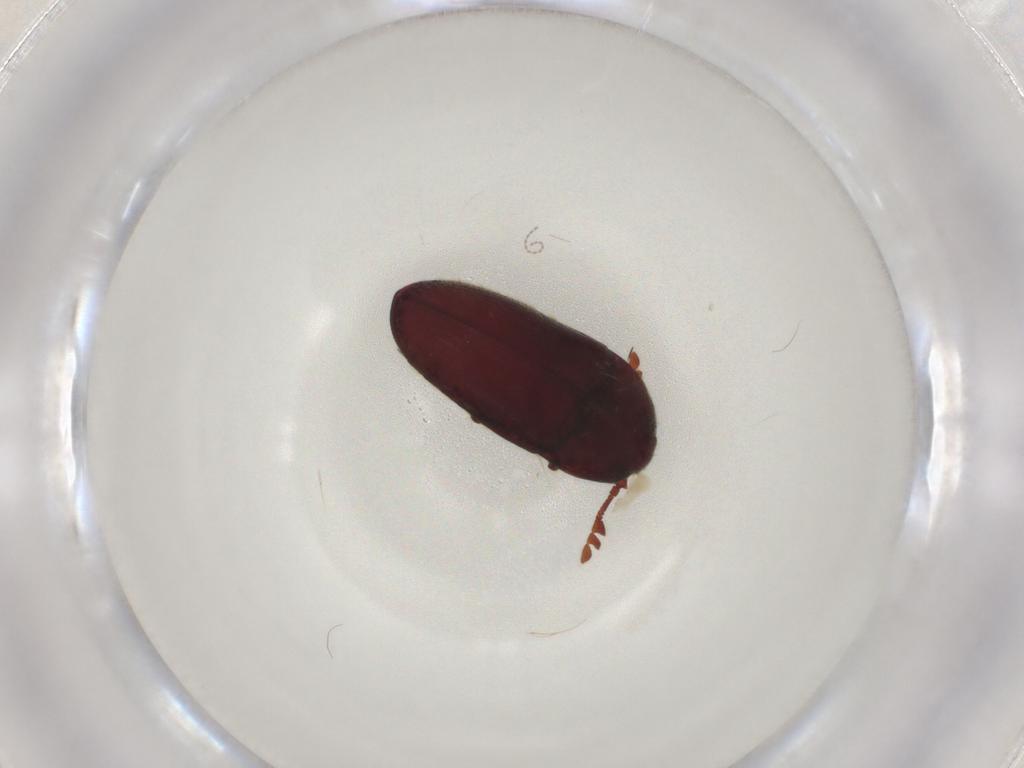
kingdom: Animalia
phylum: Arthropoda
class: Insecta
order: Coleoptera
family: Throscidae
